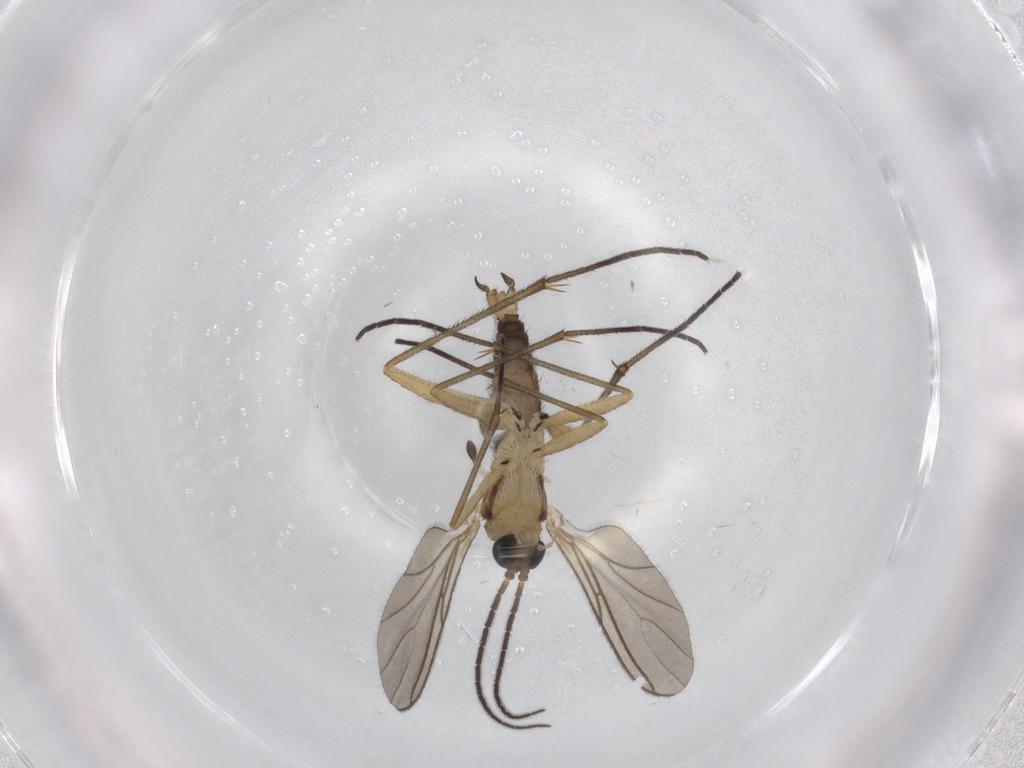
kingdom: Animalia
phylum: Arthropoda
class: Insecta
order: Diptera
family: Sciaridae
